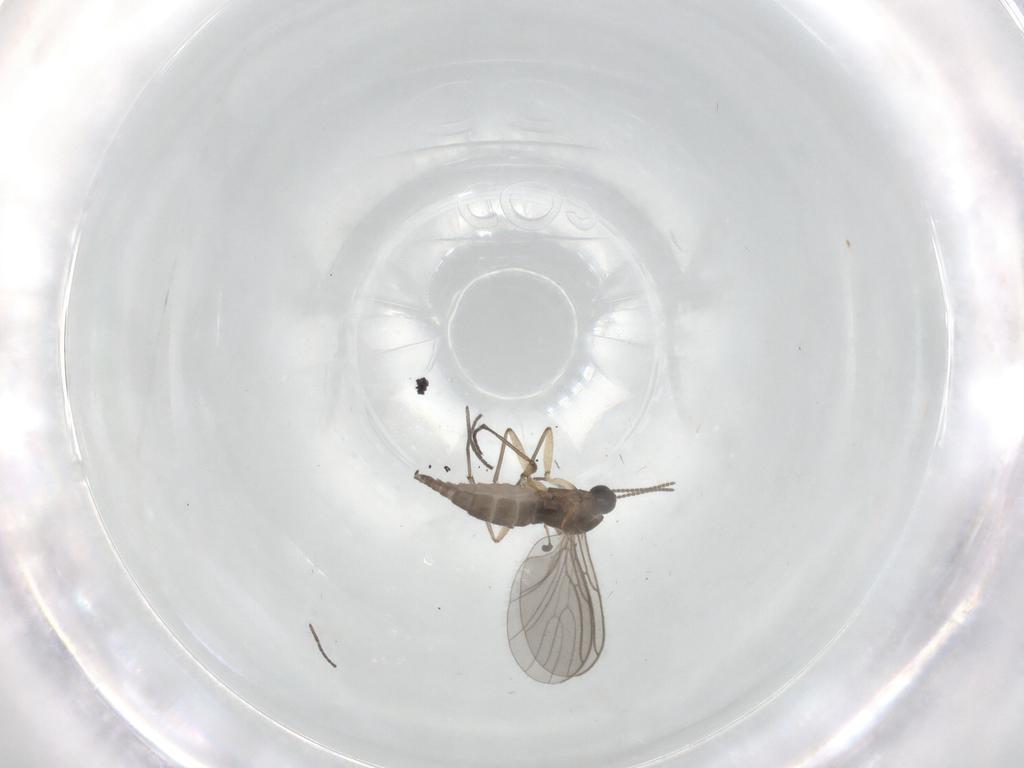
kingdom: Animalia
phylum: Arthropoda
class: Insecta
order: Diptera
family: Sciaridae
